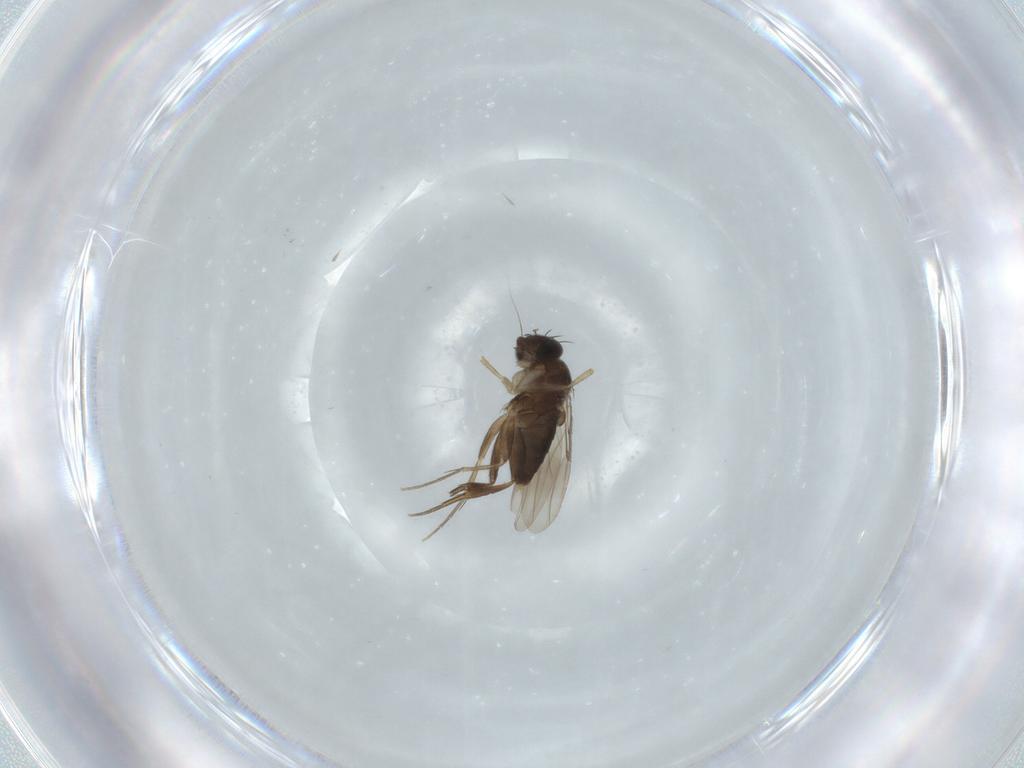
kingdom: Animalia
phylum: Arthropoda
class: Insecta
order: Diptera
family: Phoridae
